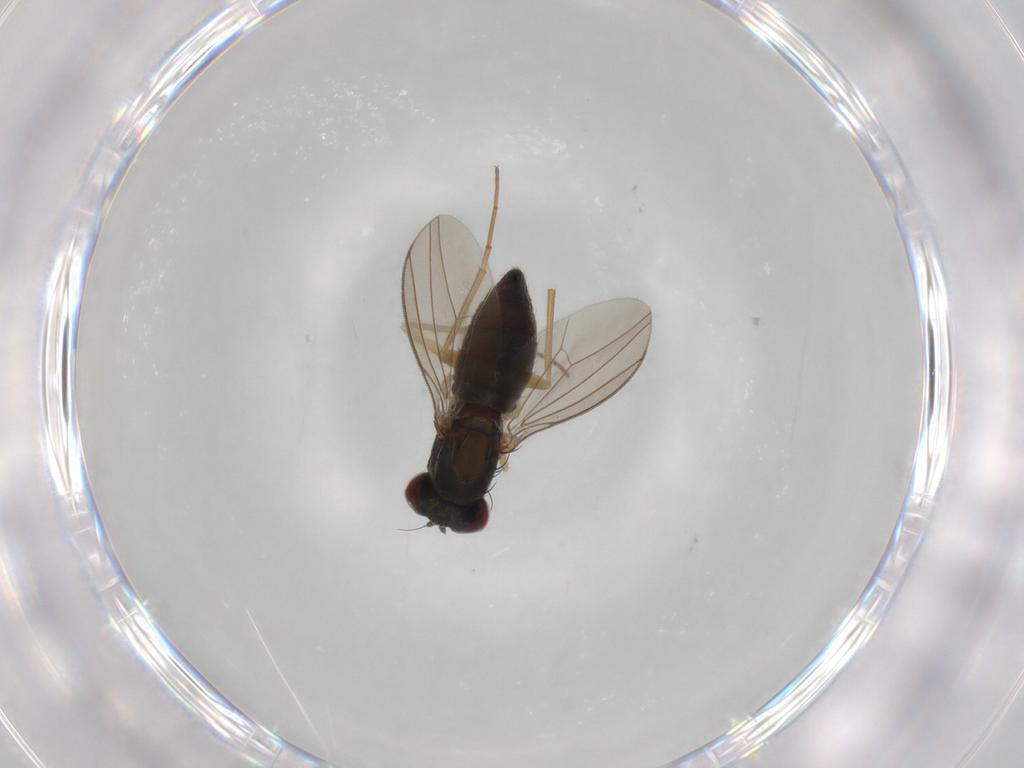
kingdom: Animalia
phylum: Arthropoda
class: Insecta
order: Diptera
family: Dolichopodidae
